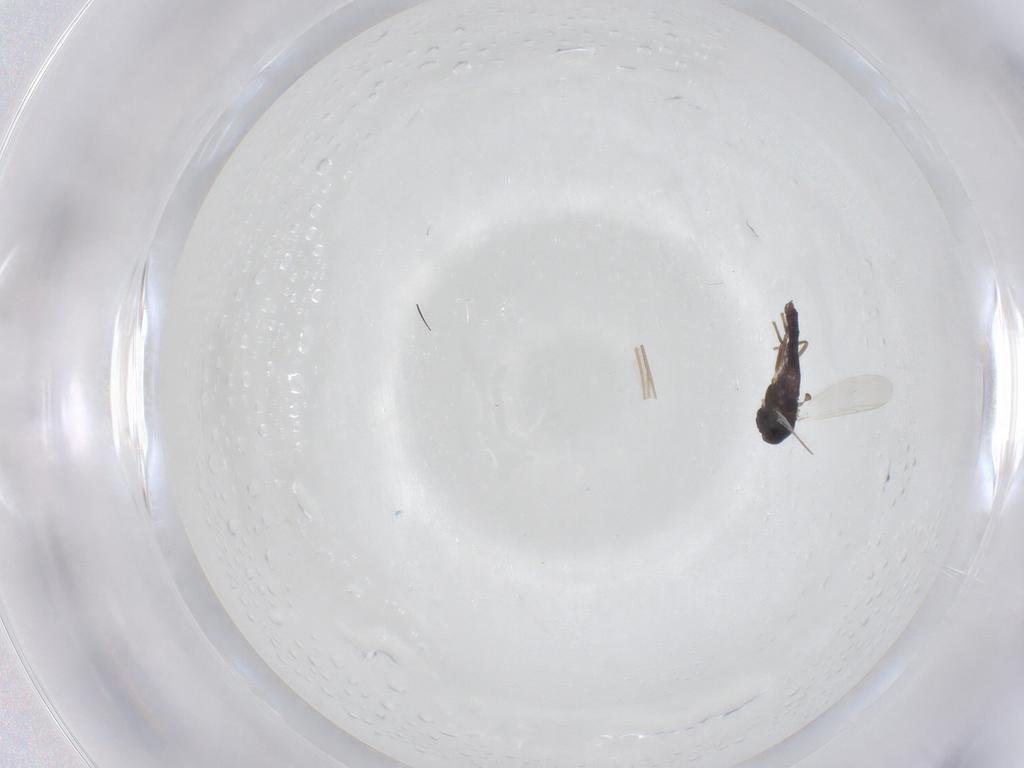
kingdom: Animalia
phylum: Arthropoda
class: Insecta
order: Diptera
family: Chironomidae
